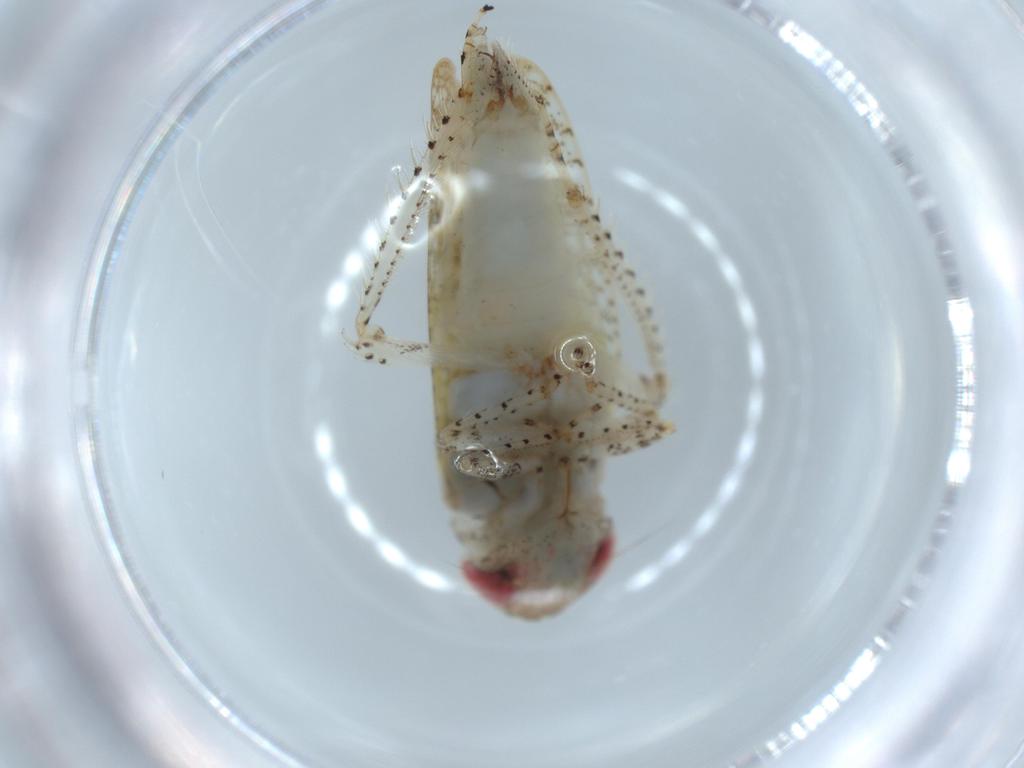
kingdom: Animalia
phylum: Arthropoda
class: Insecta
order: Hemiptera
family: Cicadellidae
